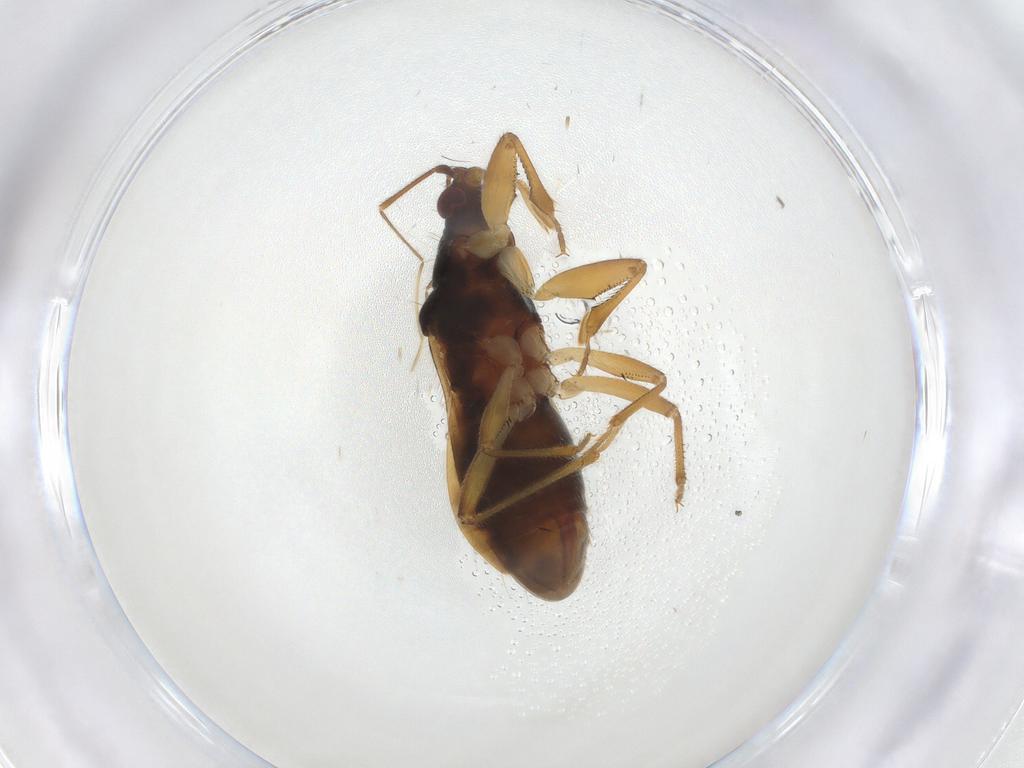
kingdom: Animalia
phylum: Arthropoda
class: Insecta
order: Hemiptera
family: Nabidae
